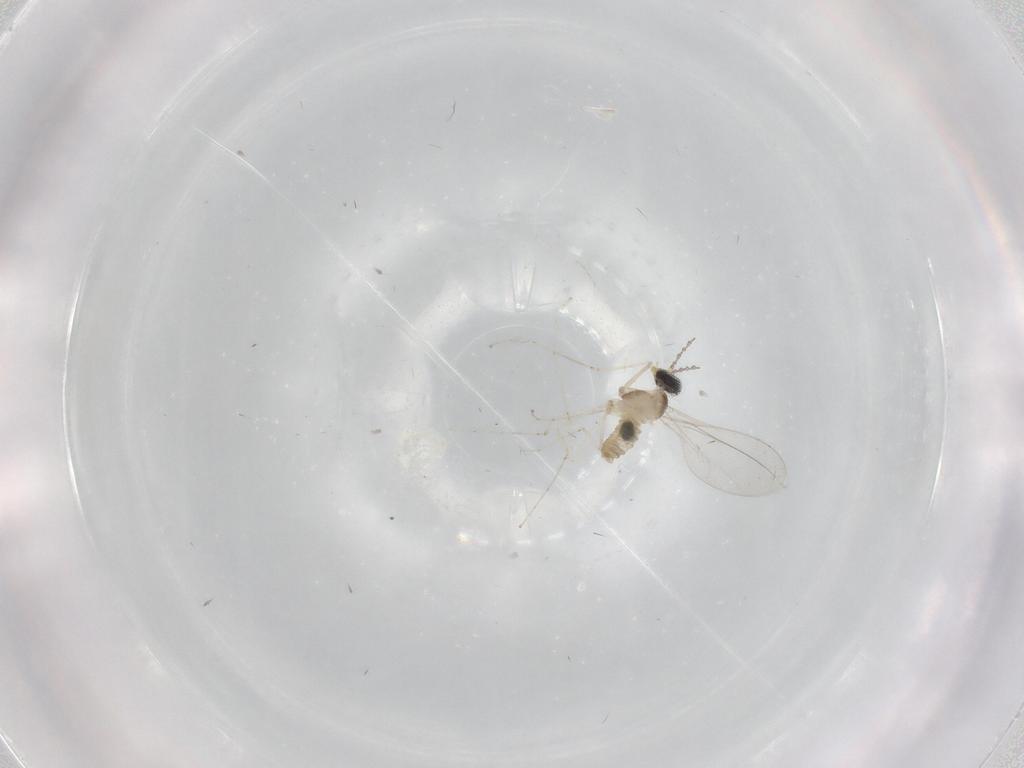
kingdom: Animalia
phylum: Arthropoda
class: Insecta
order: Diptera
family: Cecidomyiidae
